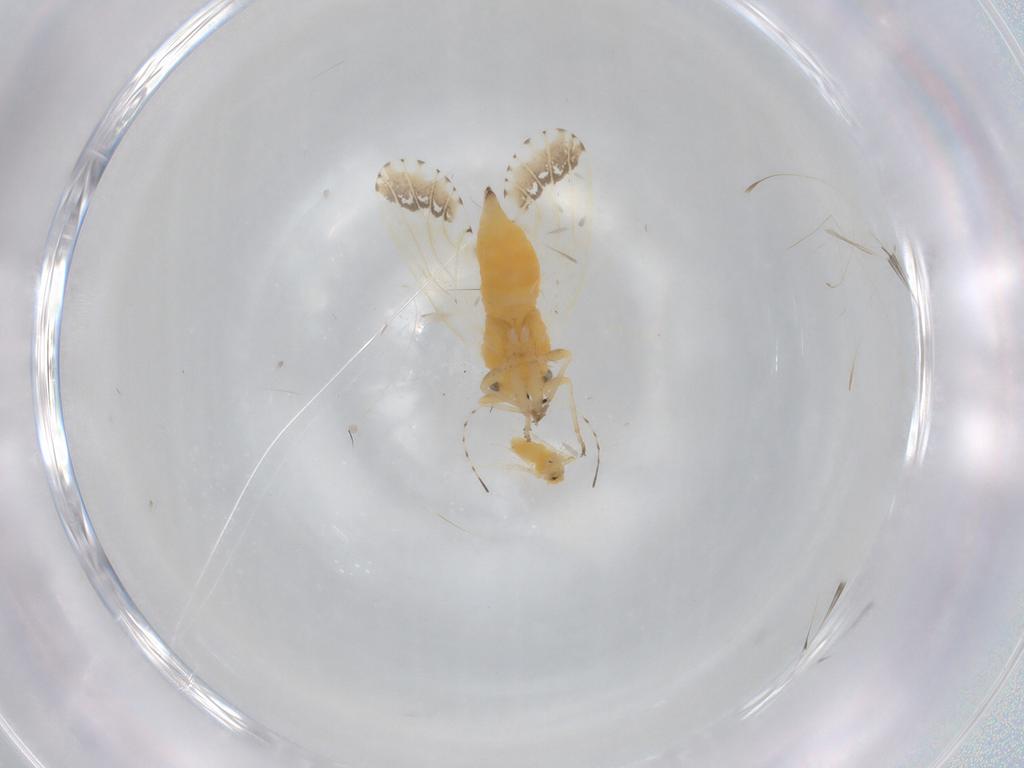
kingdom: Animalia
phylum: Arthropoda
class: Insecta
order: Hemiptera
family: Psyllidae
